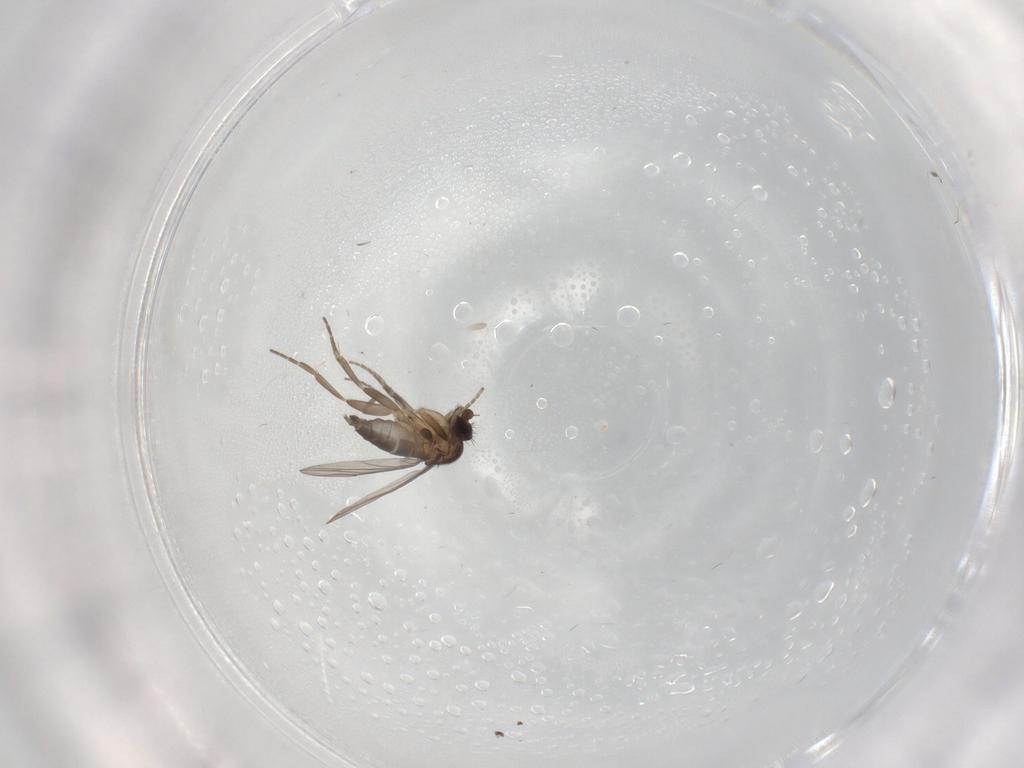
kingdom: Animalia
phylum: Arthropoda
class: Insecta
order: Diptera
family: Phoridae
